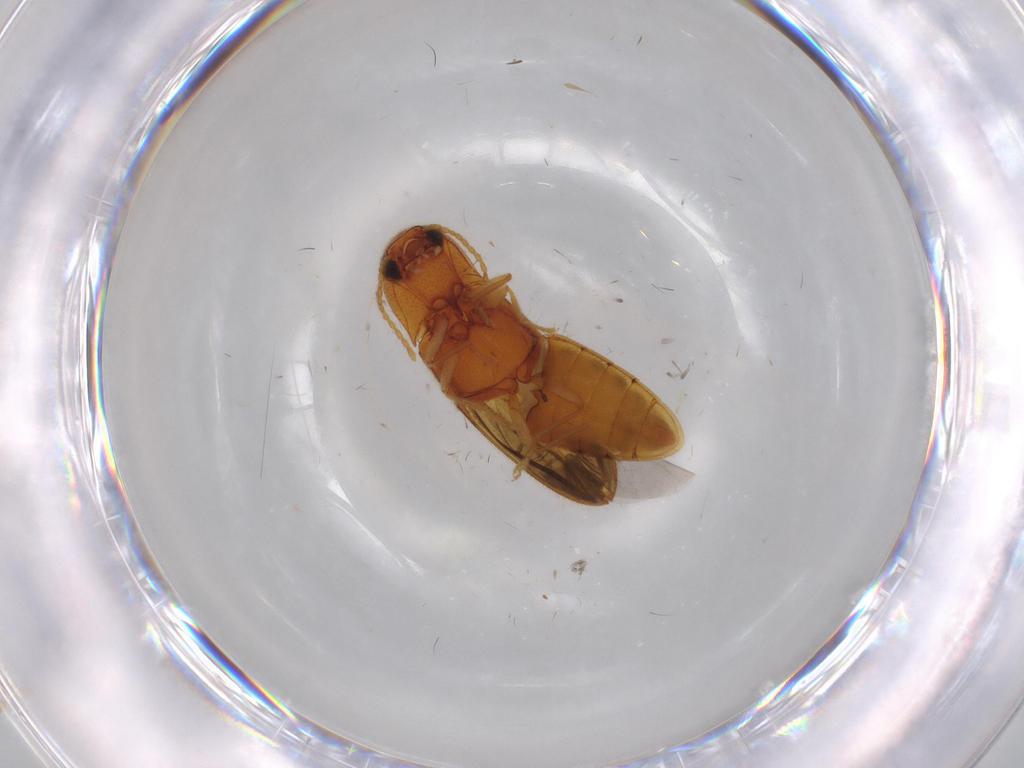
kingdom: Animalia
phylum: Arthropoda
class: Insecta
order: Coleoptera
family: Elateridae
